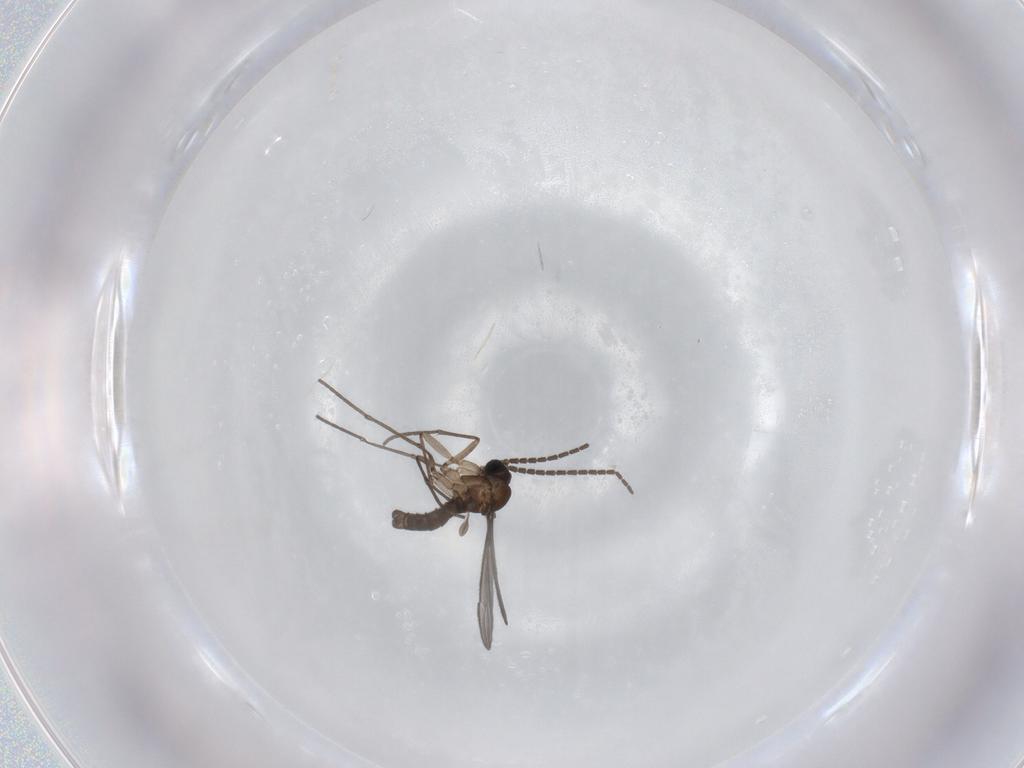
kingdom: Animalia
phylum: Arthropoda
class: Insecta
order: Diptera
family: Sciaridae
